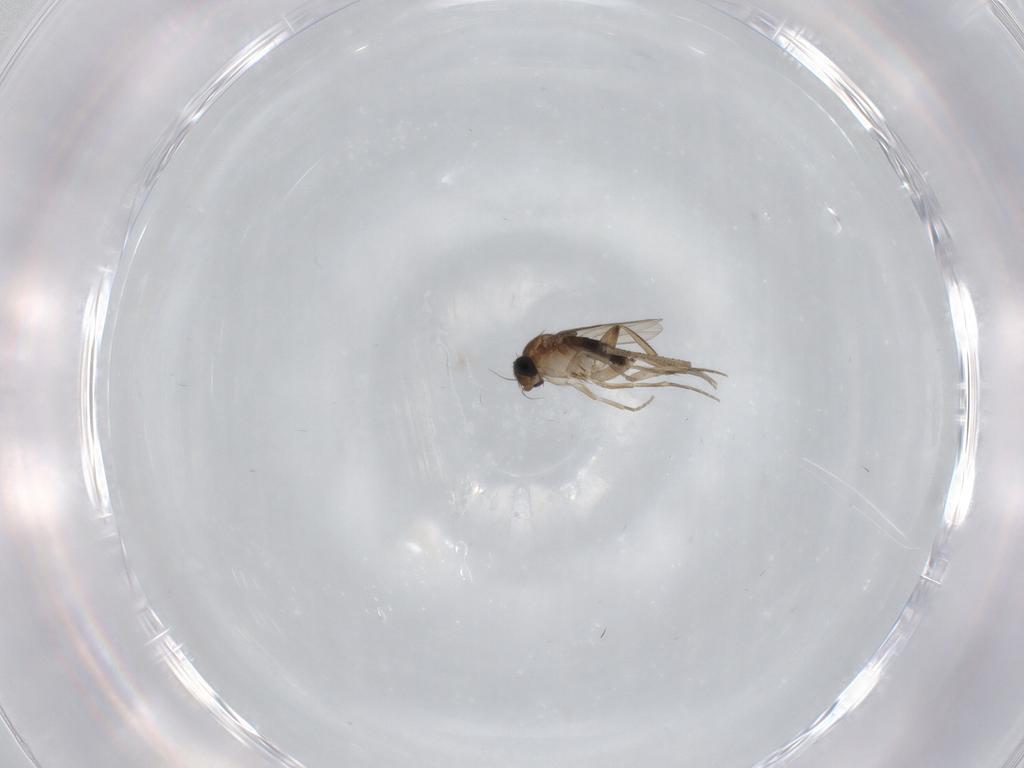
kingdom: Animalia
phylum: Arthropoda
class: Insecta
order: Diptera
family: Phoridae
